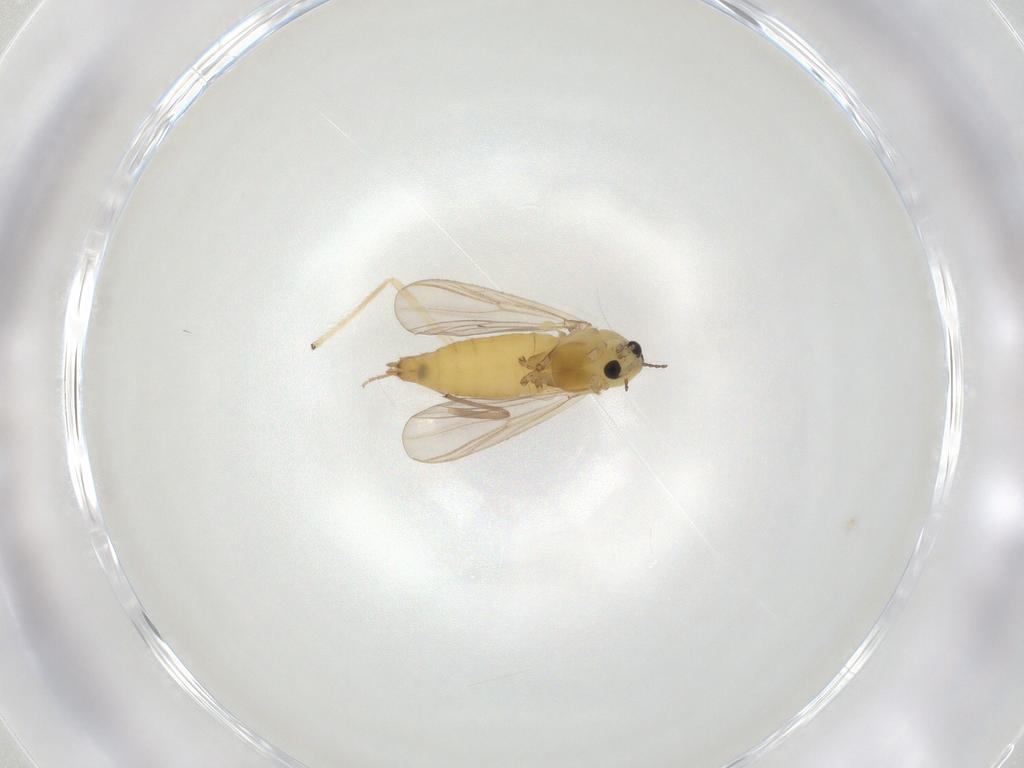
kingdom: Animalia
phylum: Arthropoda
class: Insecta
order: Diptera
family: Chironomidae
